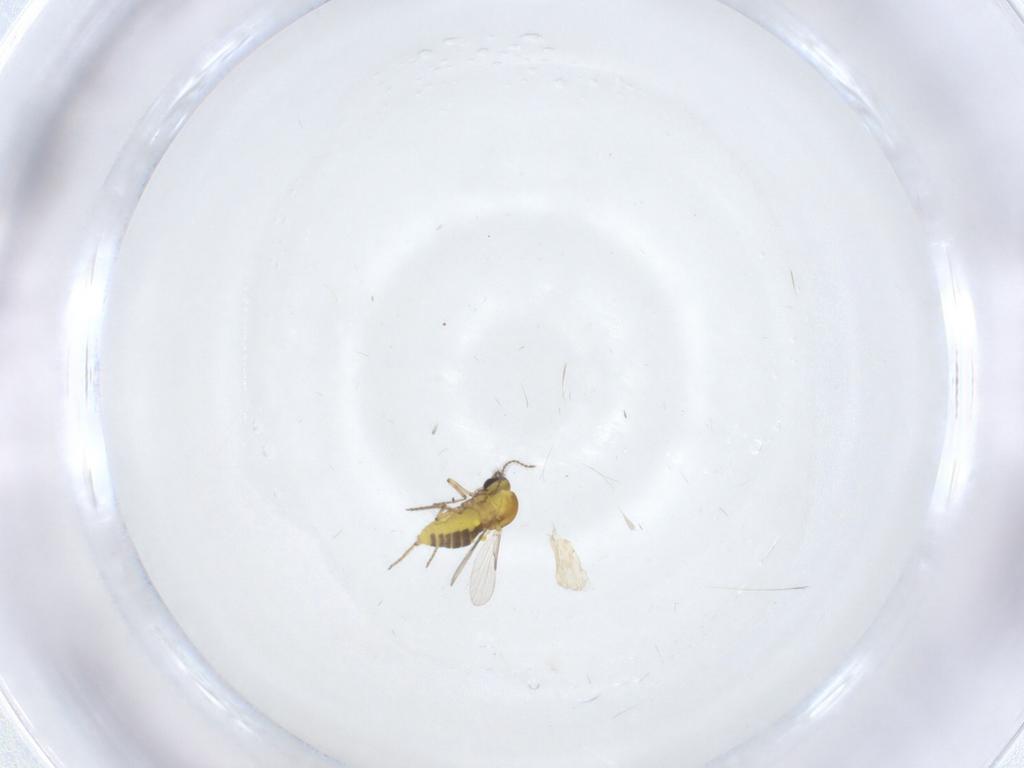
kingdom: Animalia
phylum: Arthropoda
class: Insecta
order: Diptera
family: Ceratopogonidae
